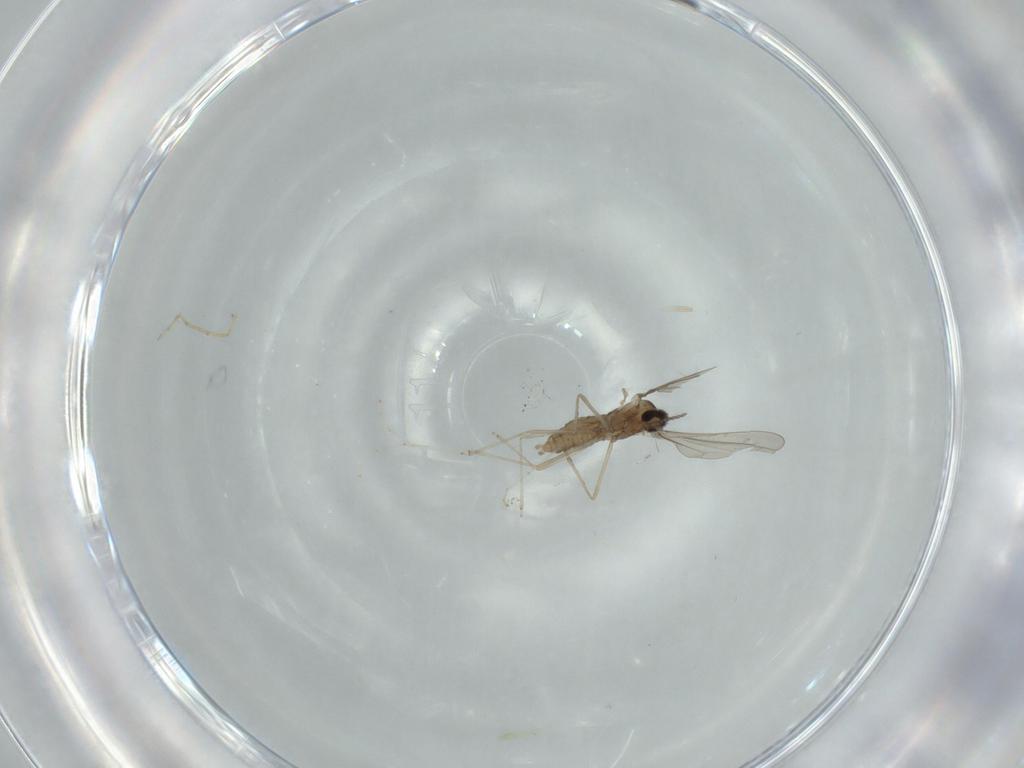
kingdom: Animalia
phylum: Arthropoda
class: Insecta
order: Diptera
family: Cecidomyiidae
